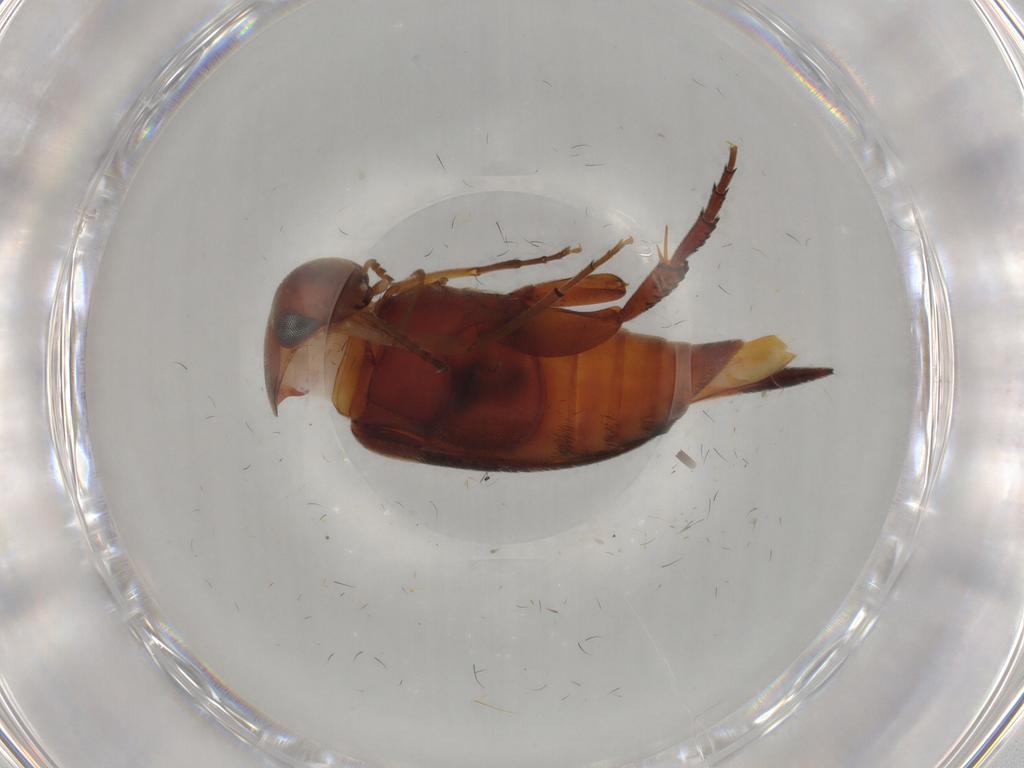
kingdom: Animalia
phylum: Arthropoda
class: Insecta
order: Coleoptera
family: Mordellidae
